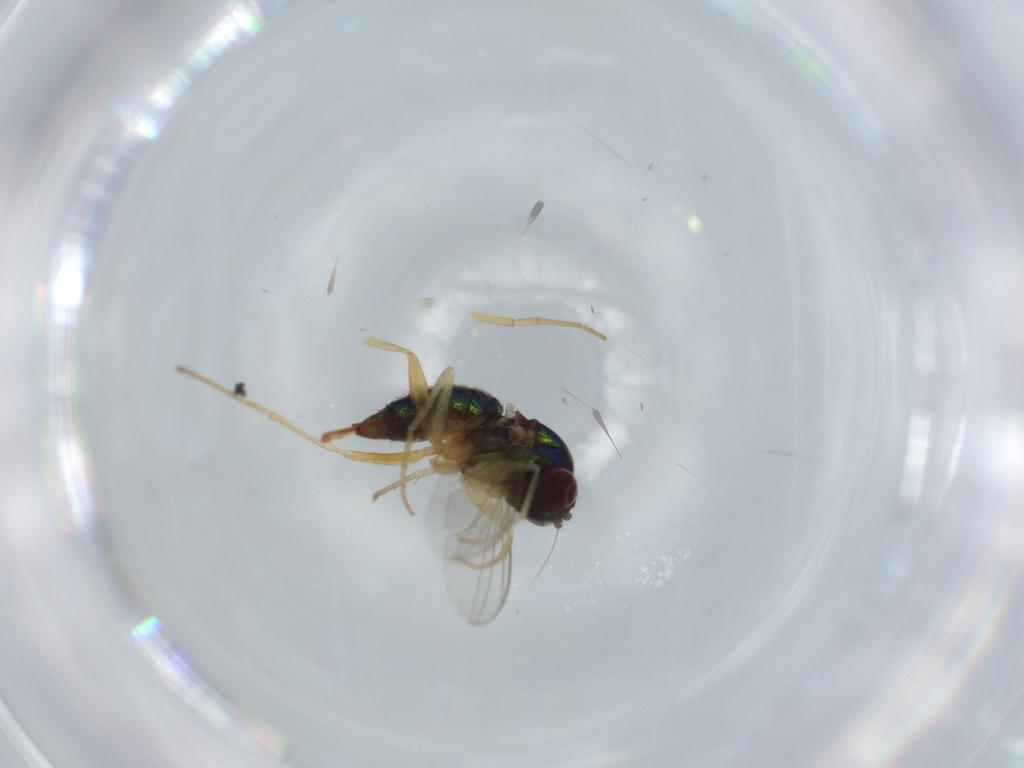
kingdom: Animalia
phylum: Arthropoda
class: Insecta
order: Diptera
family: Dolichopodidae
